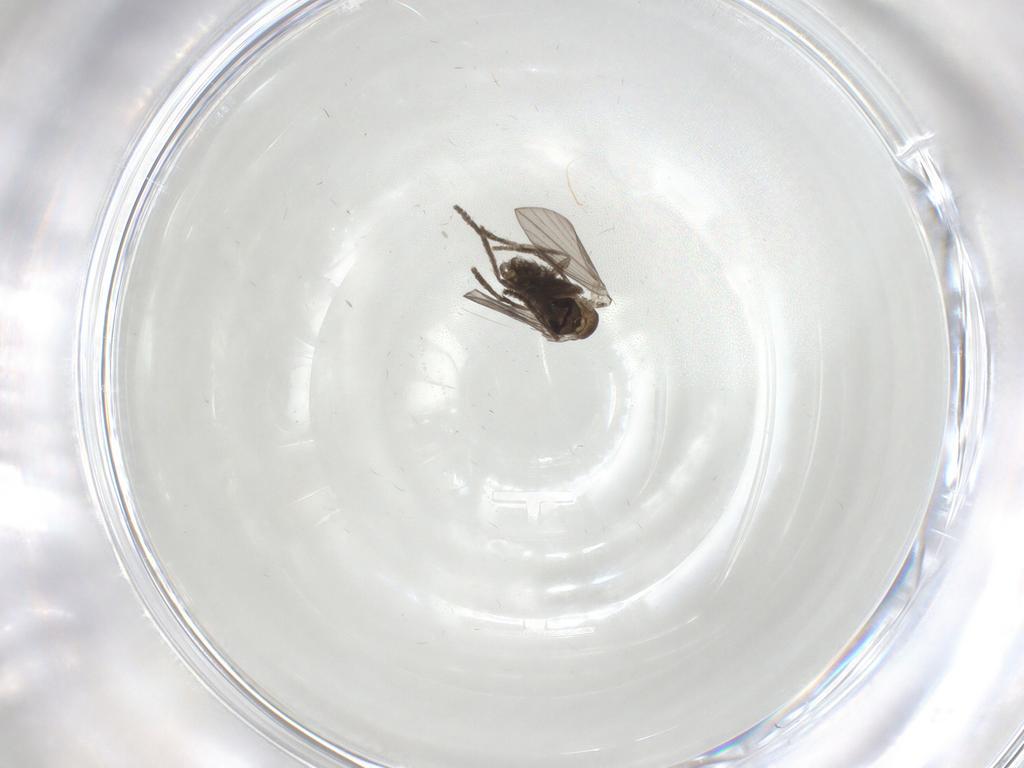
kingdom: Animalia
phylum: Arthropoda
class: Insecta
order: Diptera
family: Psychodidae
